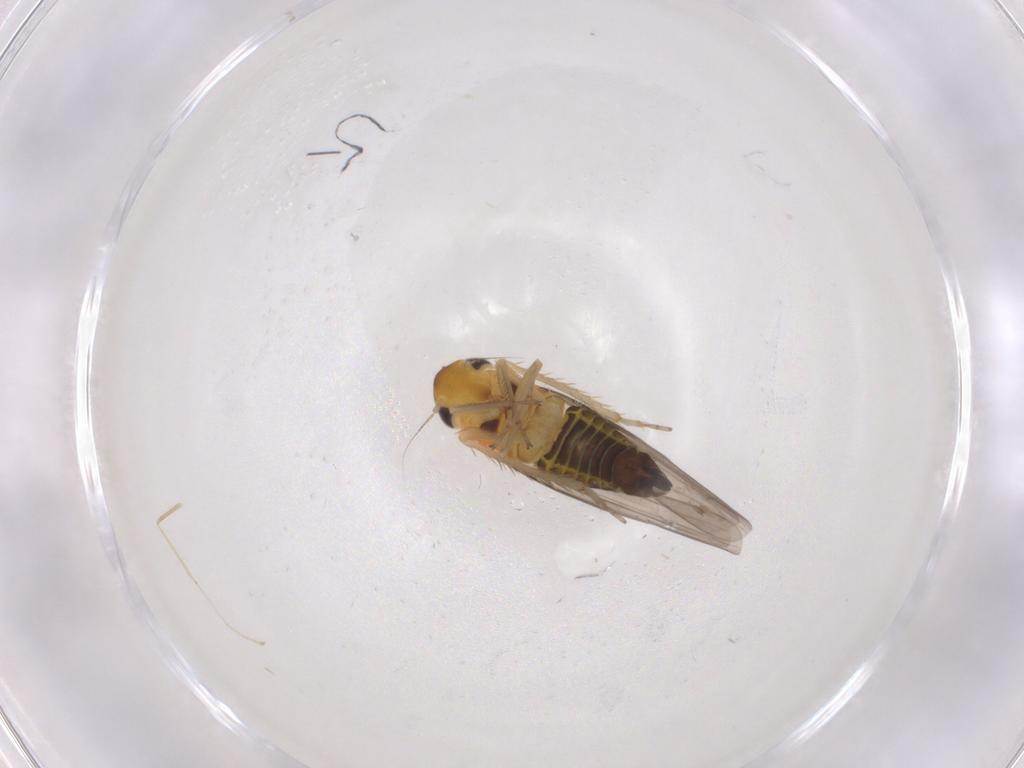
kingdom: Animalia
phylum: Arthropoda
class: Insecta
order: Hemiptera
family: Cicadellidae
